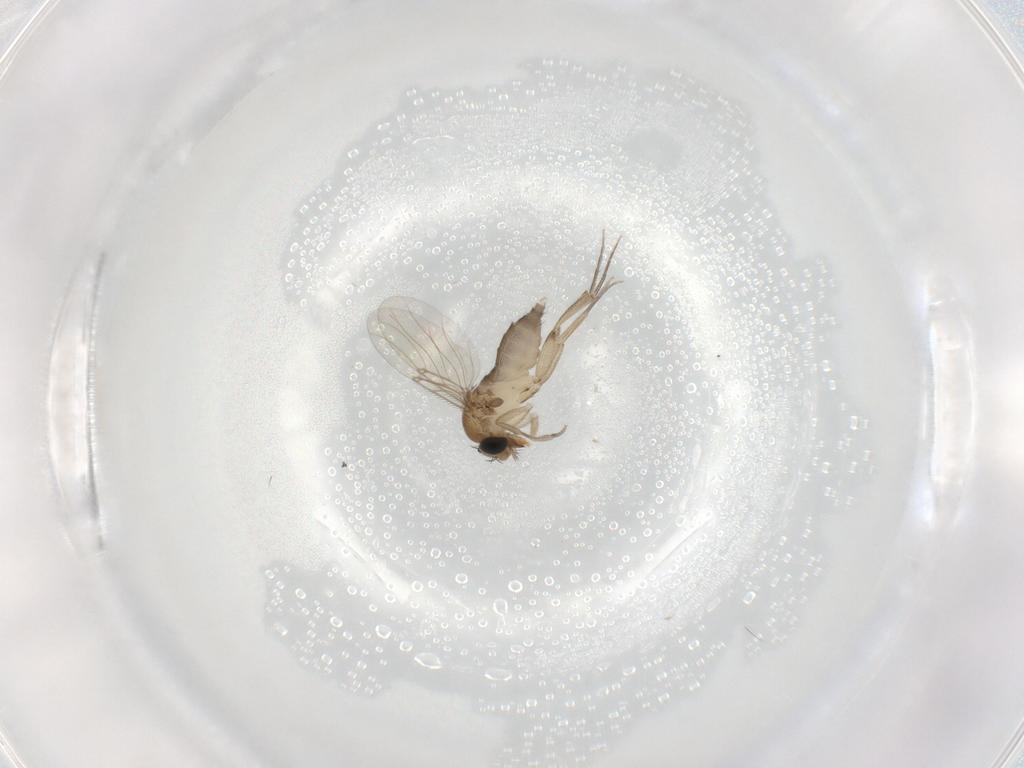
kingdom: Animalia
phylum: Arthropoda
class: Insecta
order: Diptera
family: Phoridae
